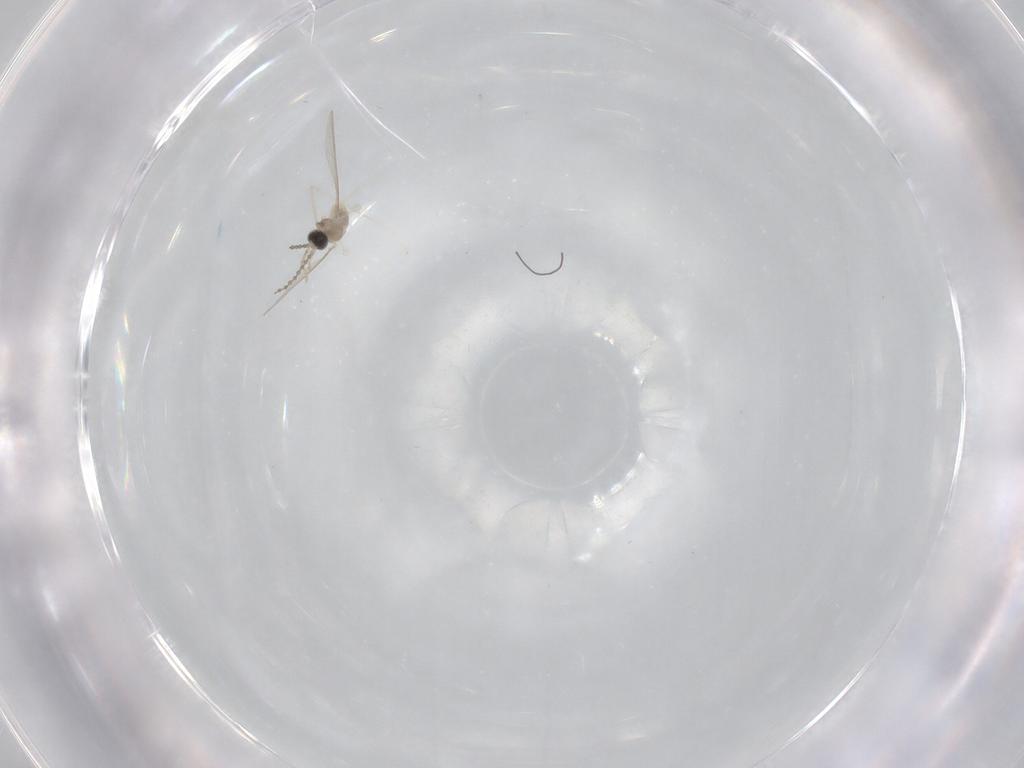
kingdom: Animalia
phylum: Arthropoda
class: Insecta
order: Diptera
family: Cecidomyiidae
